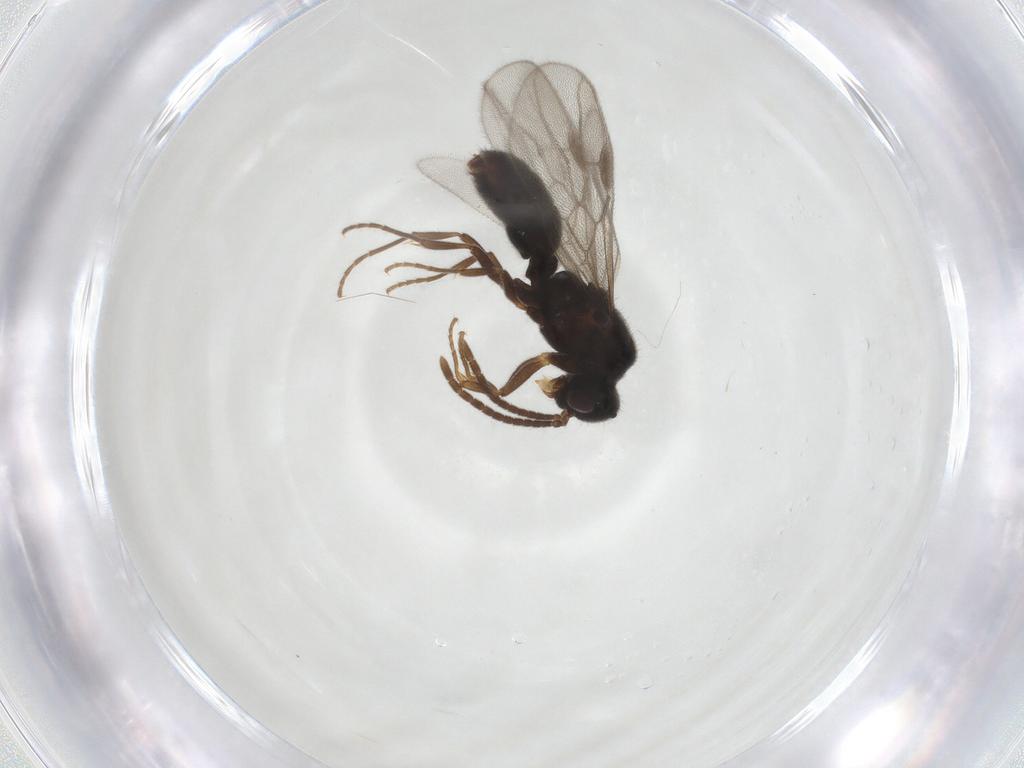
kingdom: Animalia
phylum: Arthropoda
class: Insecta
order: Hymenoptera
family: Formicidae
